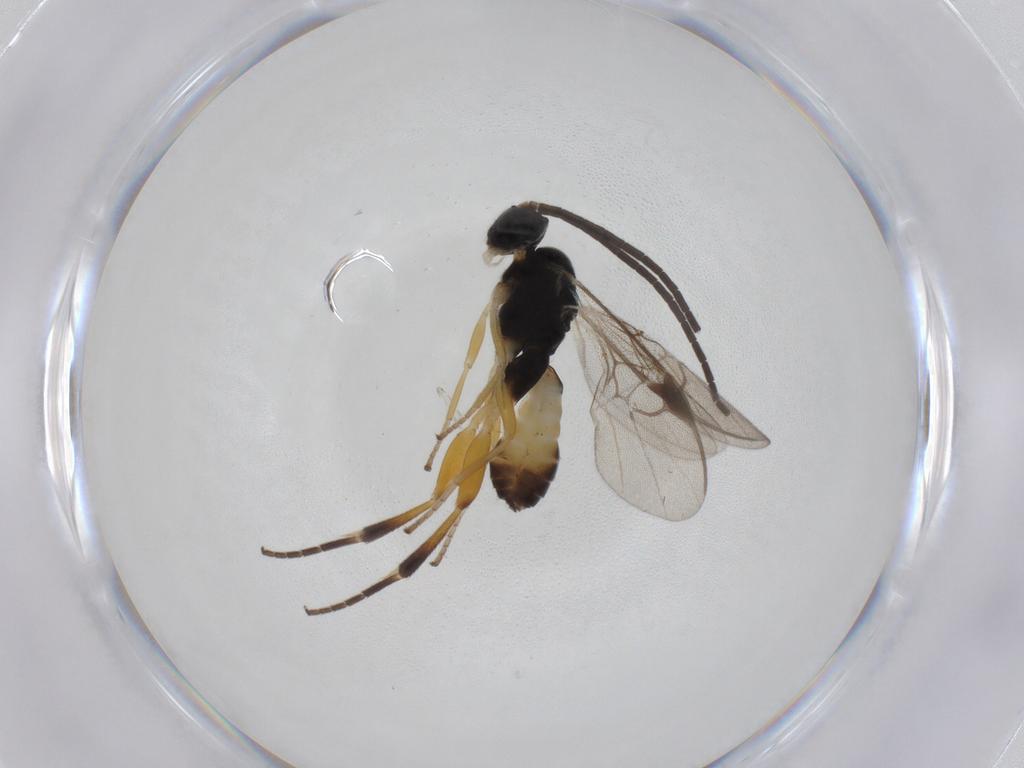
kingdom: Animalia
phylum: Arthropoda
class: Insecta
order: Hymenoptera
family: Braconidae
